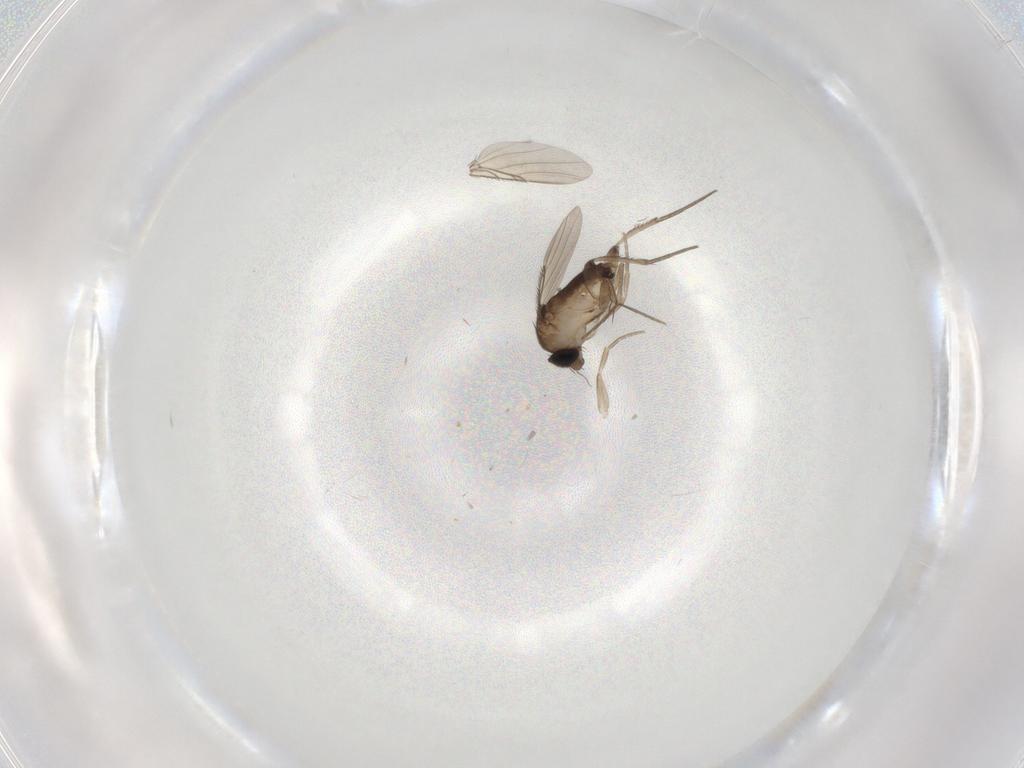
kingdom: Animalia
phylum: Arthropoda
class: Insecta
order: Diptera
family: Phoridae
